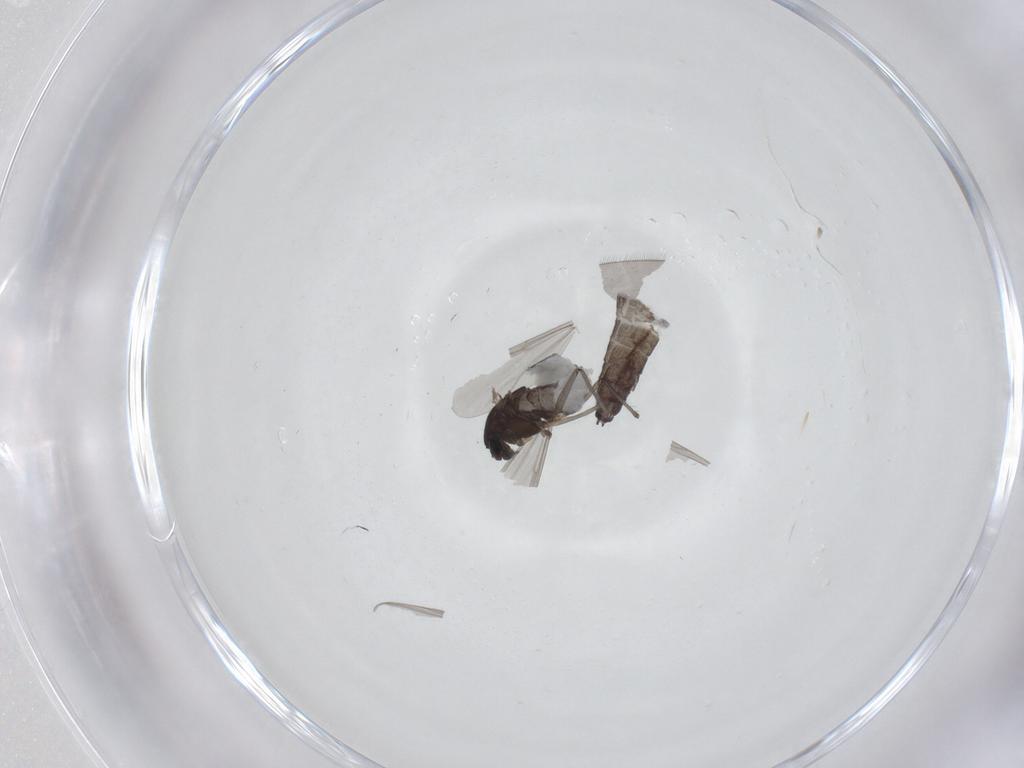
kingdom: Animalia
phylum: Arthropoda
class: Insecta
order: Diptera
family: Chironomidae
